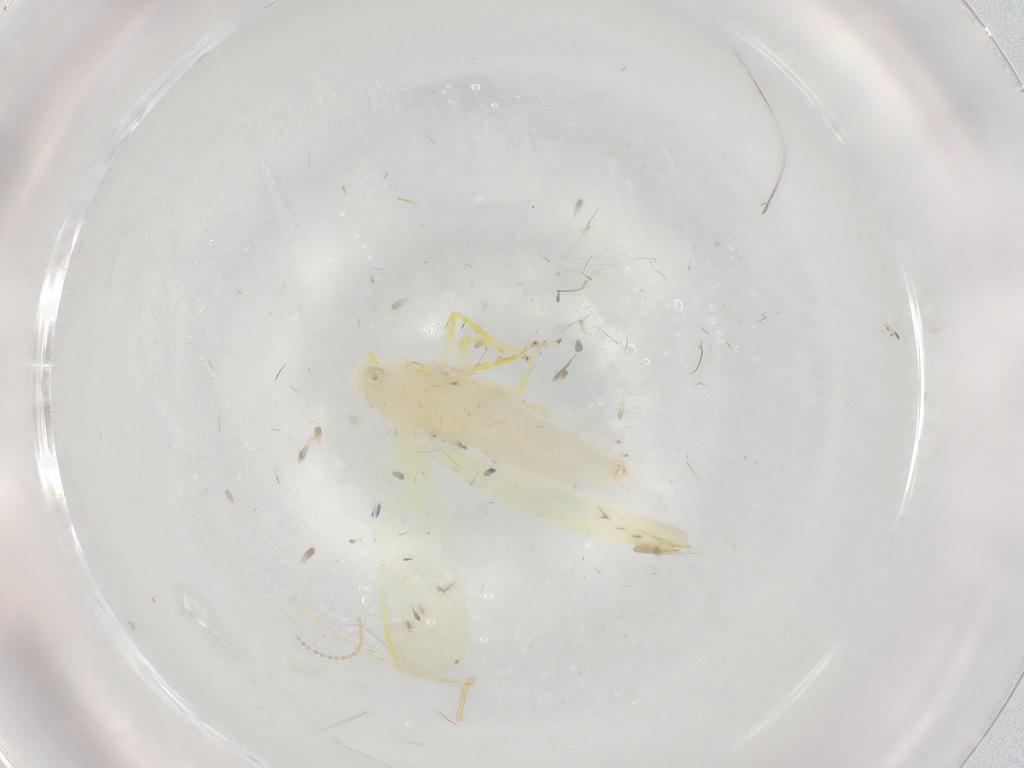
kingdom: Animalia
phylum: Arthropoda
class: Insecta
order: Hemiptera
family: Cicadellidae
